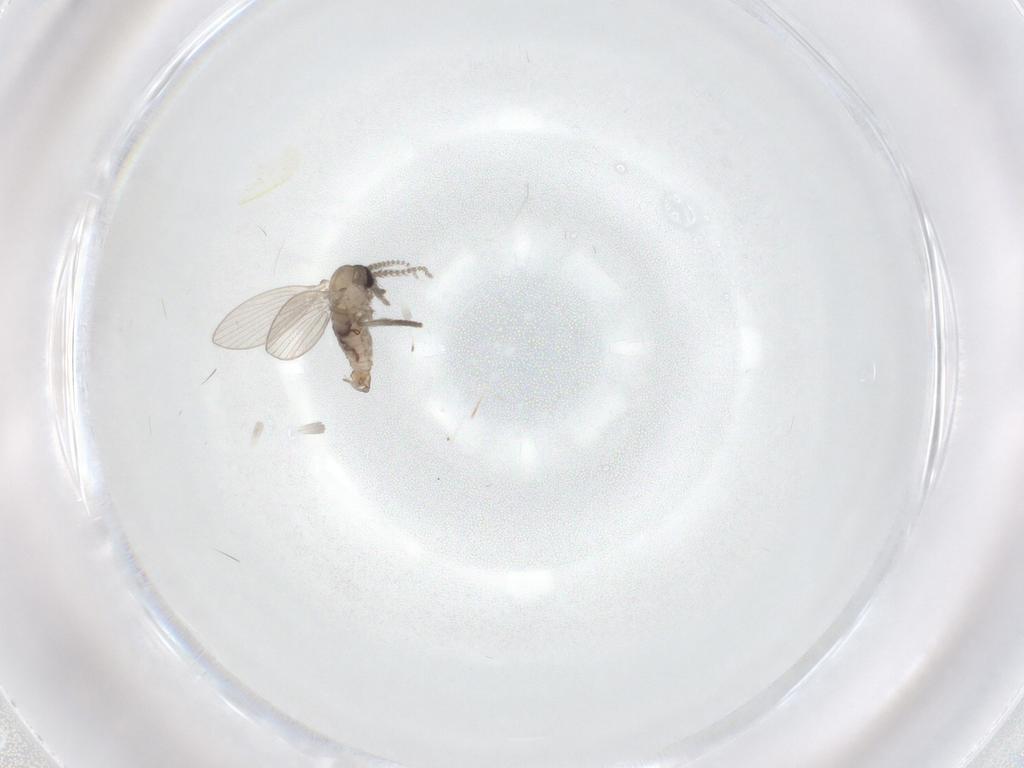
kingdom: Animalia
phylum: Arthropoda
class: Insecta
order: Diptera
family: Psychodidae
